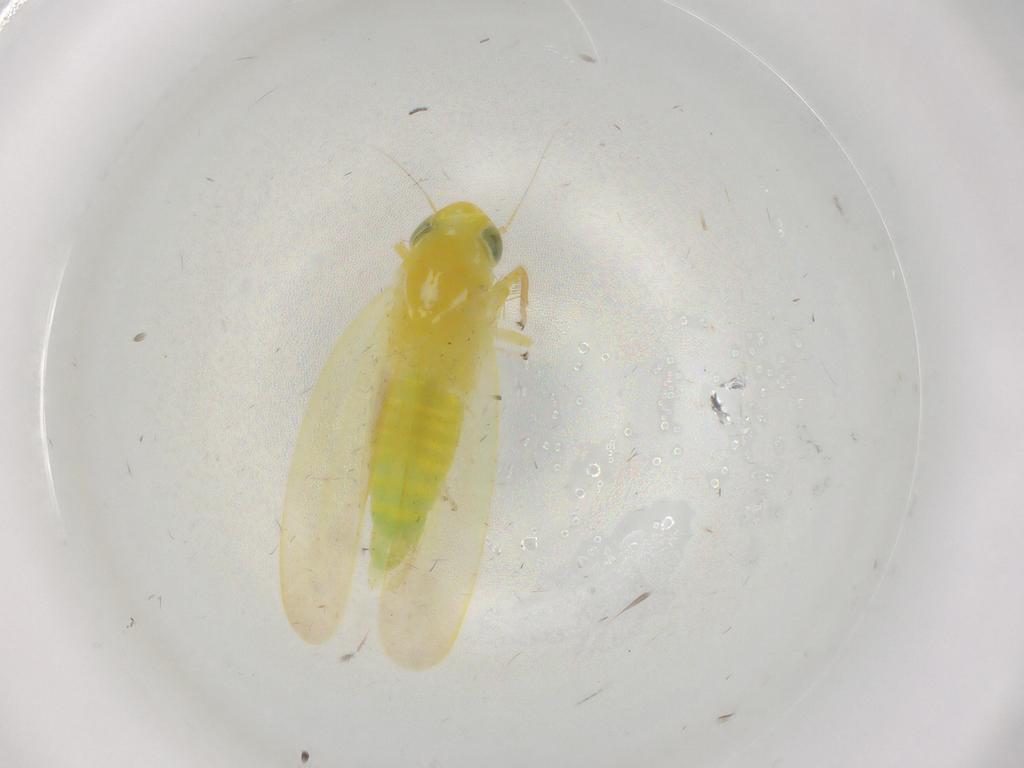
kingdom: Animalia
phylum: Arthropoda
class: Insecta
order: Hemiptera
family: Cicadellidae
